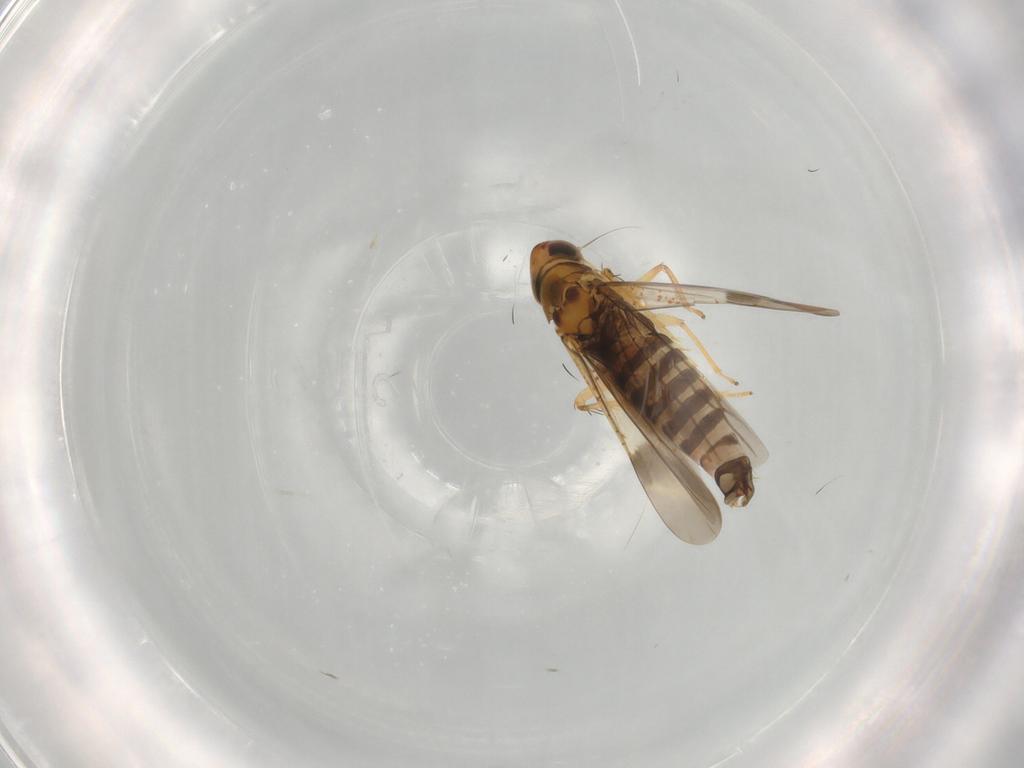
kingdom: Animalia
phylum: Arthropoda
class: Insecta
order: Hemiptera
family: Cicadellidae
